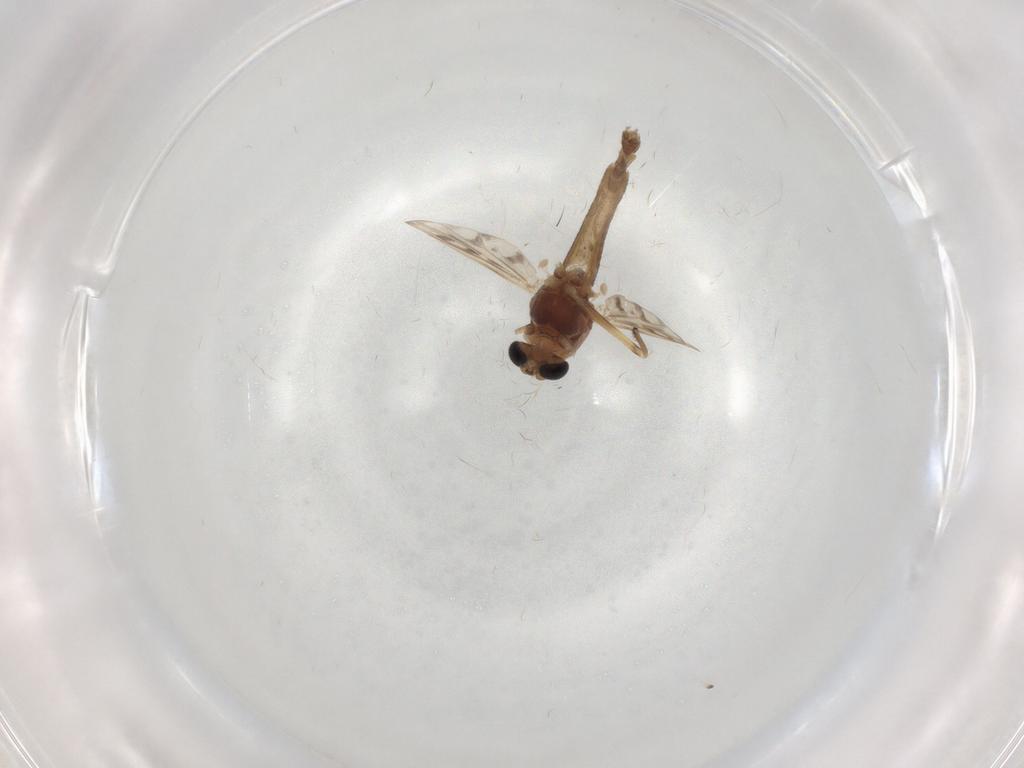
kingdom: Animalia
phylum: Arthropoda
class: Insecta
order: Diptera
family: Chironomidae
